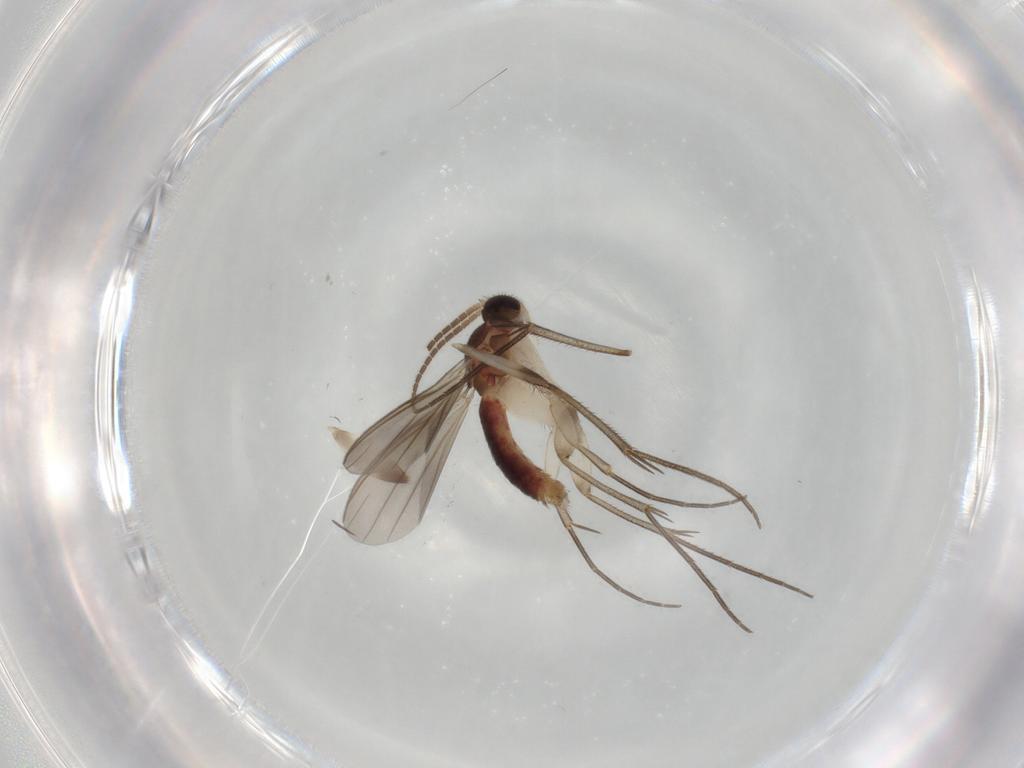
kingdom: Animalia
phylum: Arthropoda
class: Insecta
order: Diptera
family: Mycetophilidae
